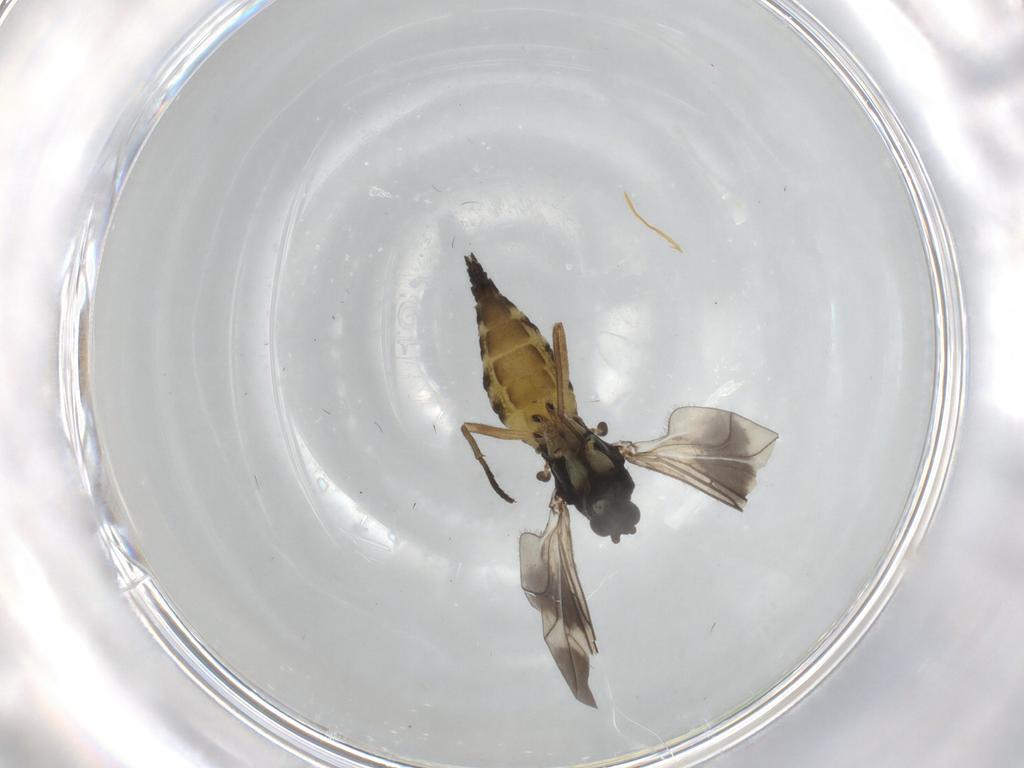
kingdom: Animalia
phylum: Arthropoda
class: Insecta
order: Diptera
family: Sciaridae
